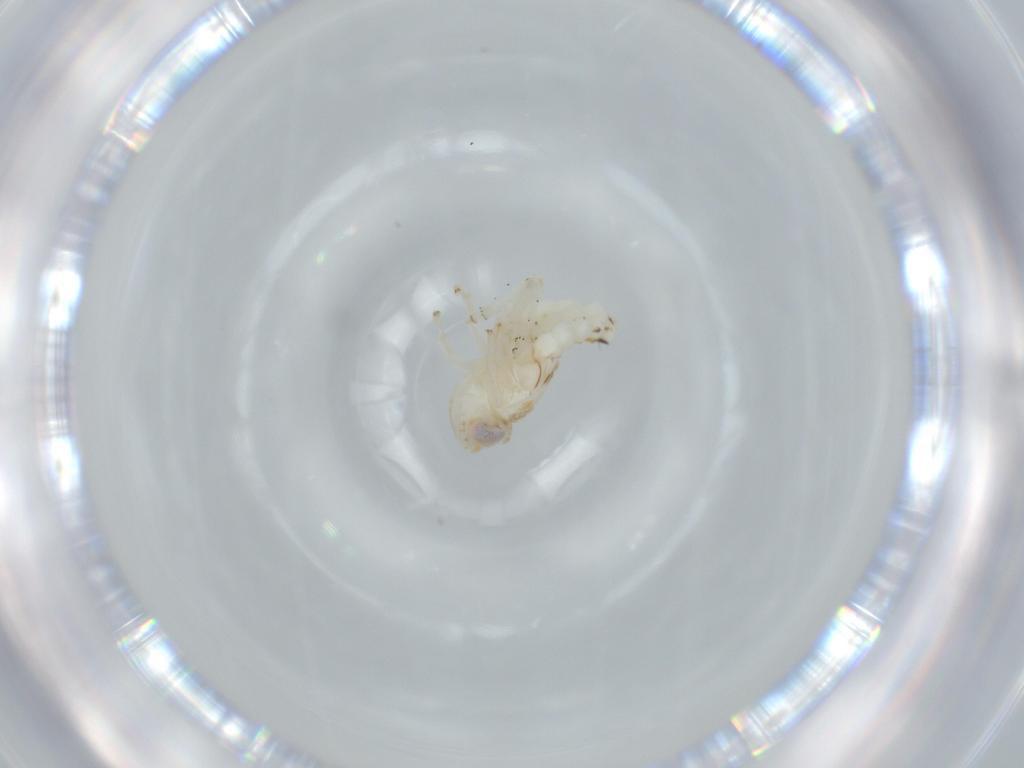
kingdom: Animalia
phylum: Arthropoda
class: Insecta
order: Hemiptera
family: Nogodinidae
